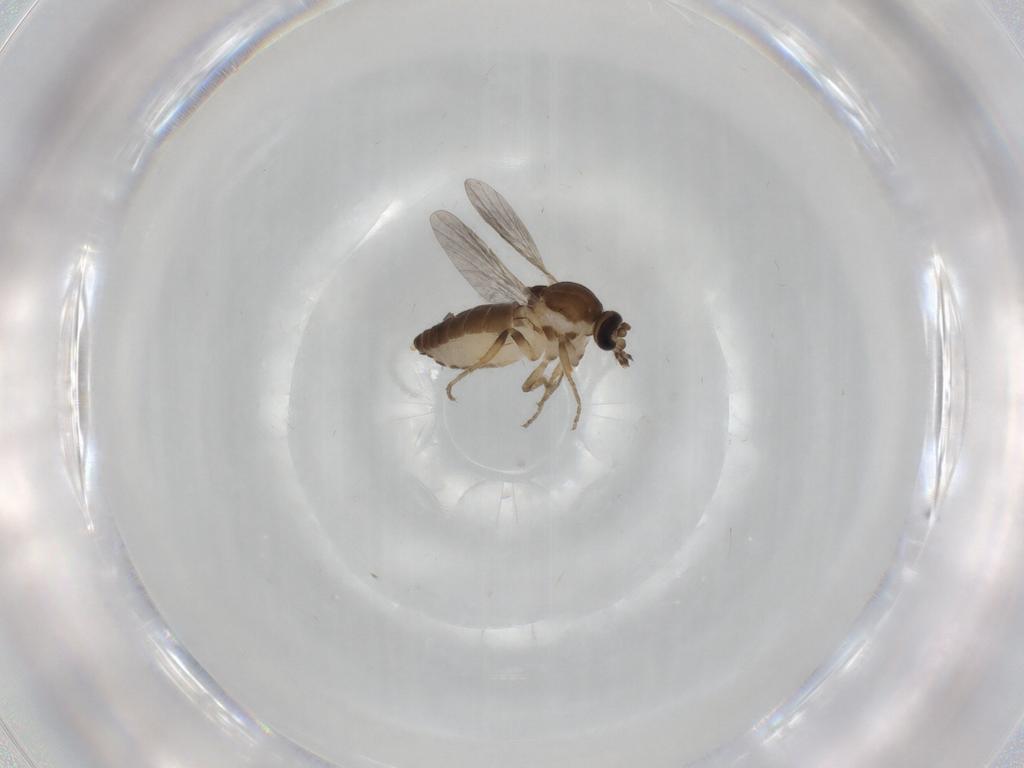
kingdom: Animalia
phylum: Arthropoda
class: Insecta
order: Diptera
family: Ceratopogonidae
